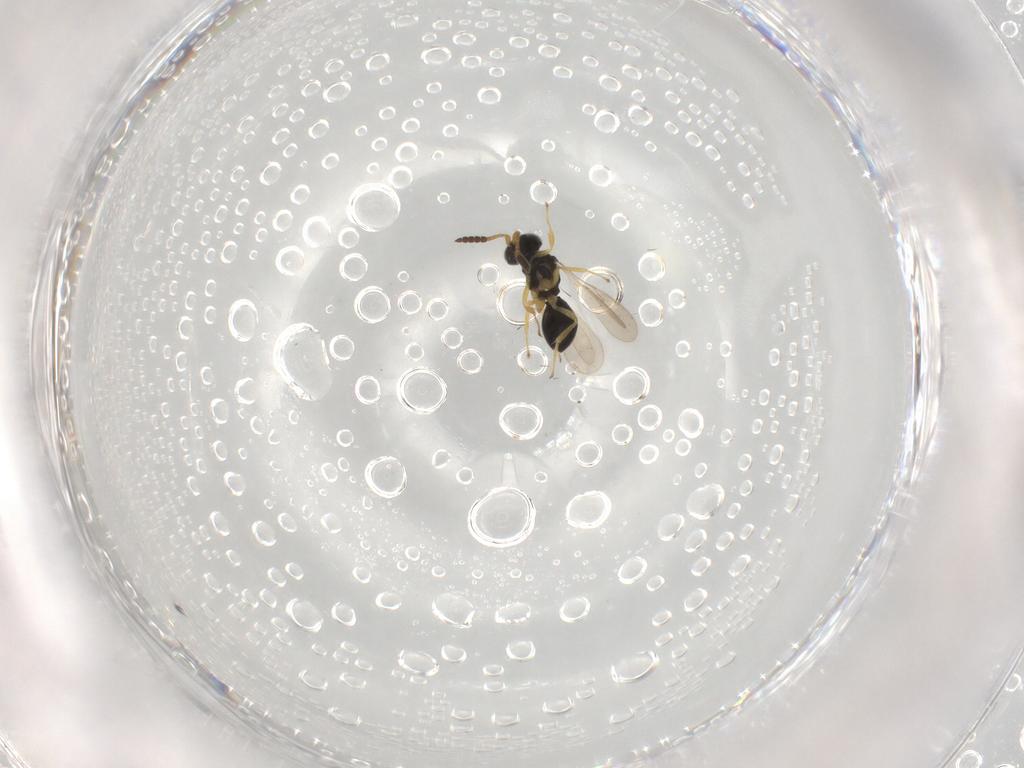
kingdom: Animalia
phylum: Arthropoda
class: Insecta
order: Hymenoptera
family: Scelionidae
